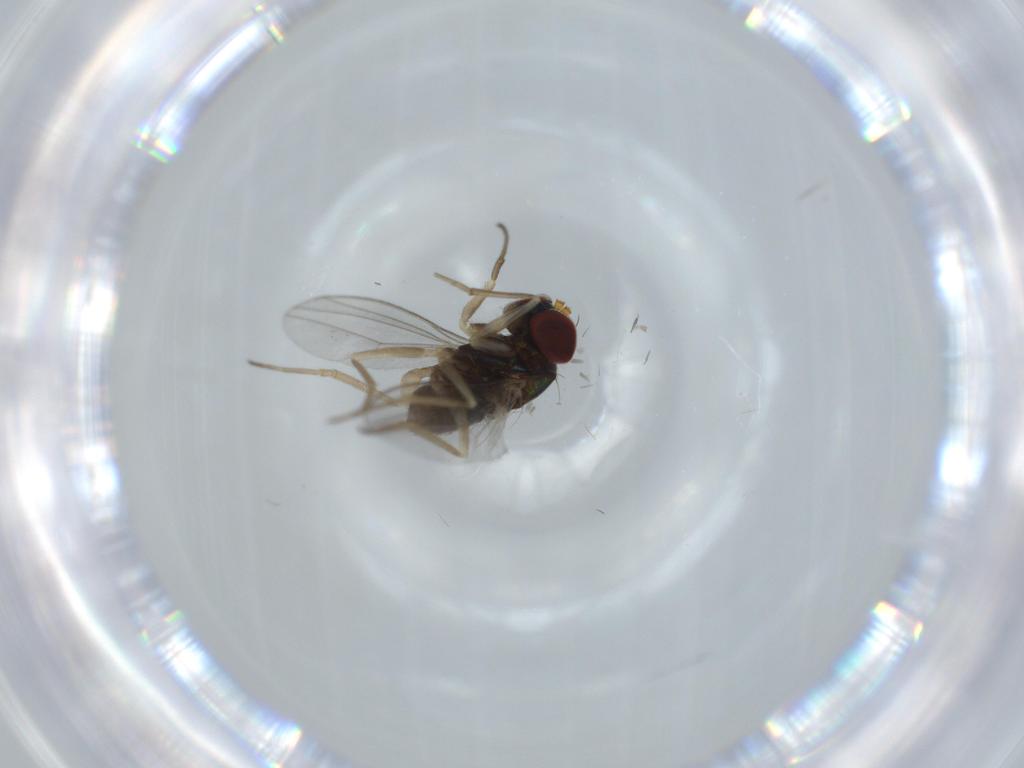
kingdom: Animalia
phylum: Arthropoda
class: Insecta
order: Diptera
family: Dolichopodidae
